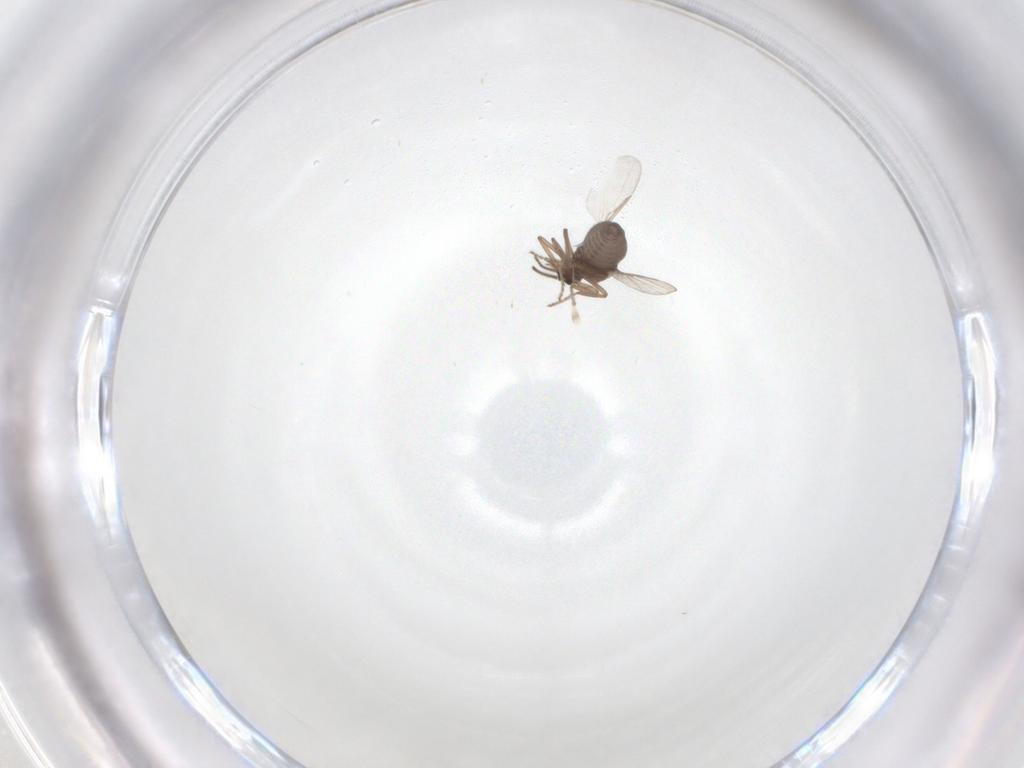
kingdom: Animalia
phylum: Arthropoda
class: Insecta
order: Diptera
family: Ceratopogonidae
